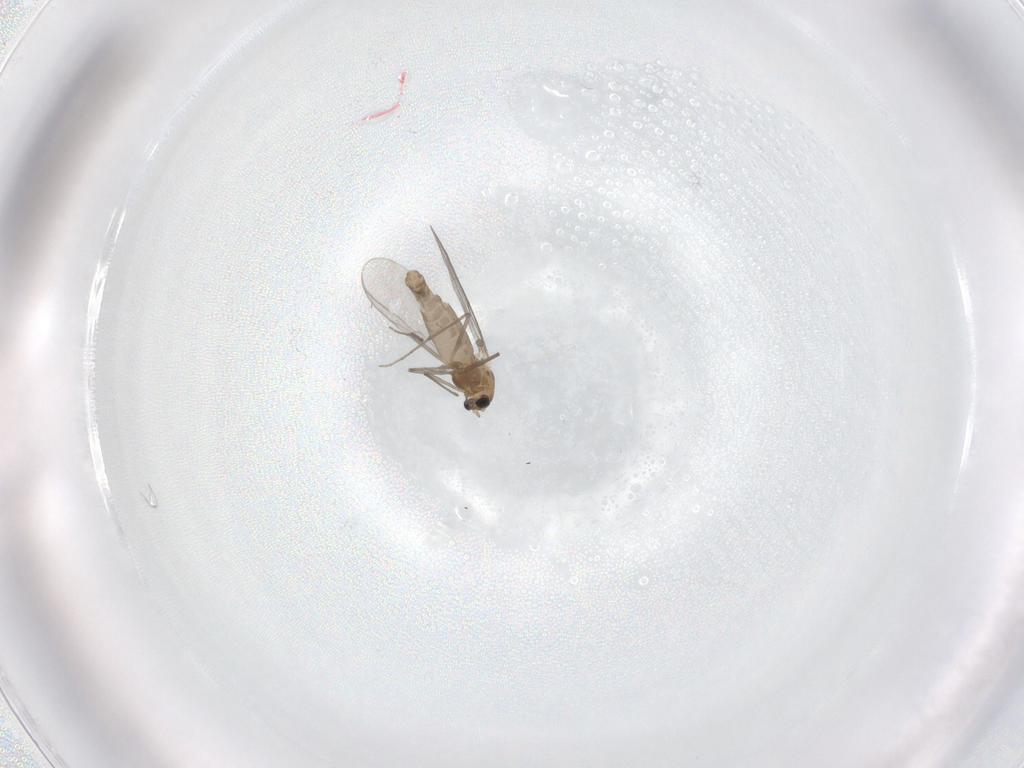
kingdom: Animalia
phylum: Arthropoda
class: Insecta
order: Diptera
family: Chironomidae
